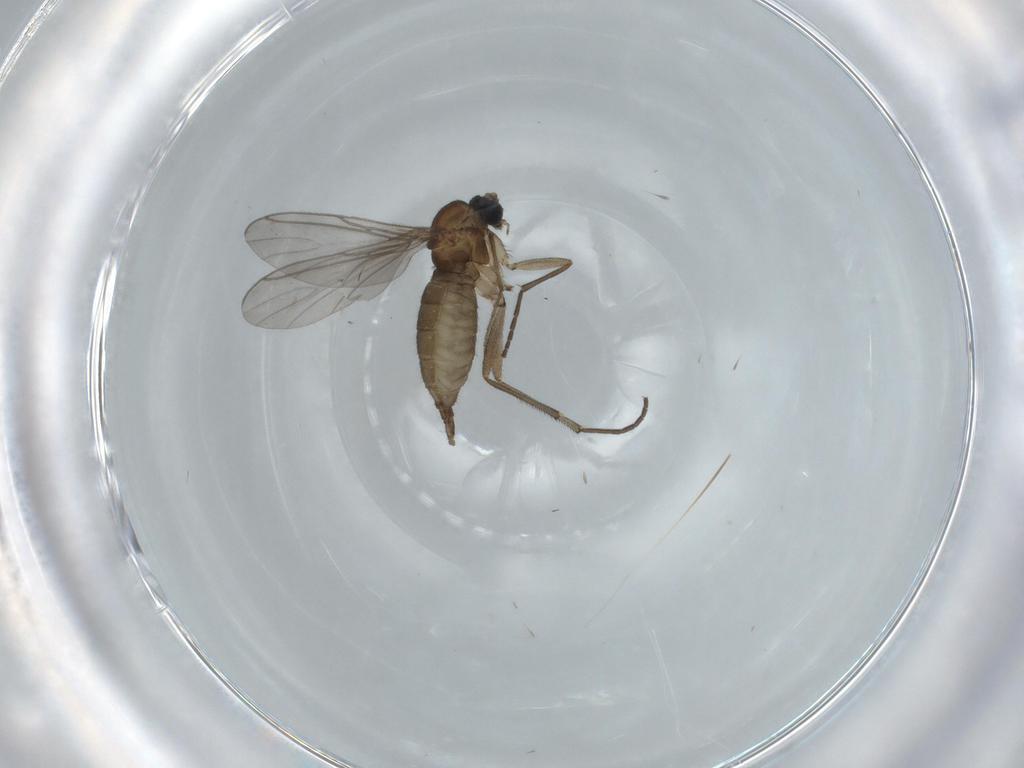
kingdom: Animalia
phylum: Arthropoda
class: Insecta
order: Diptera
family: Sciaridae
